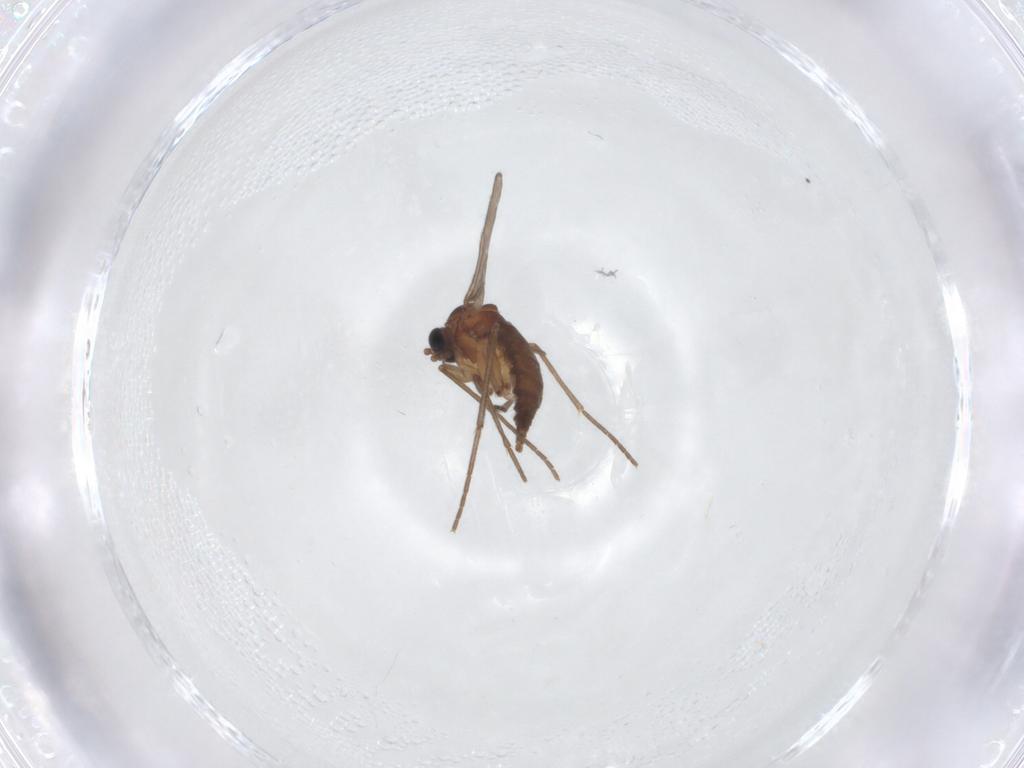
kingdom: Animalia
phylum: Arthropoda
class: Insecta
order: Diptera
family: Sciaridae
